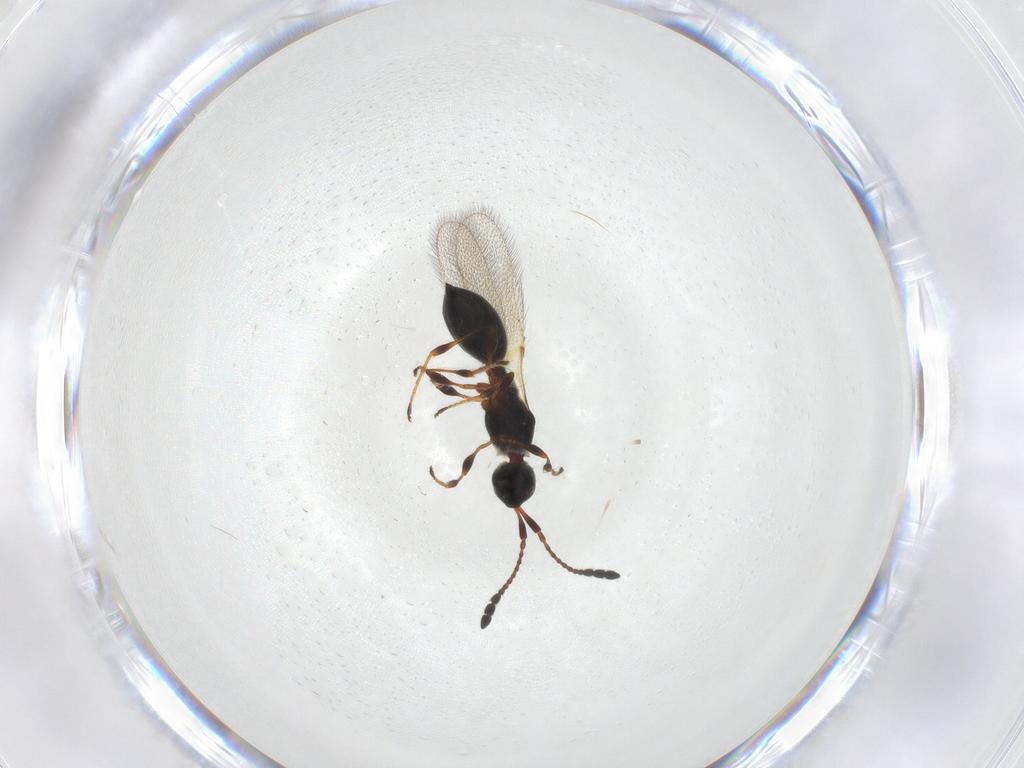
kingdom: Animalia
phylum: Arthropoda
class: Insecta
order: Hymenoptera
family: Diapriidae
